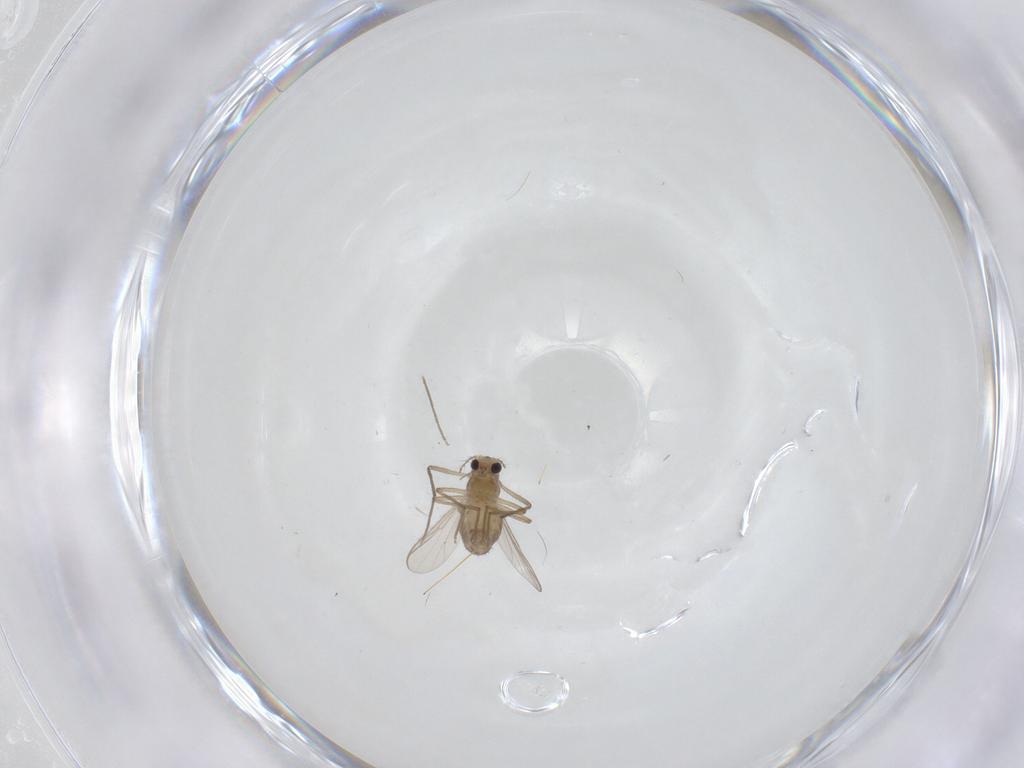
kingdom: Animalia
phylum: Arthropoda
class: Insecta
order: Diptera
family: Chironomidae
